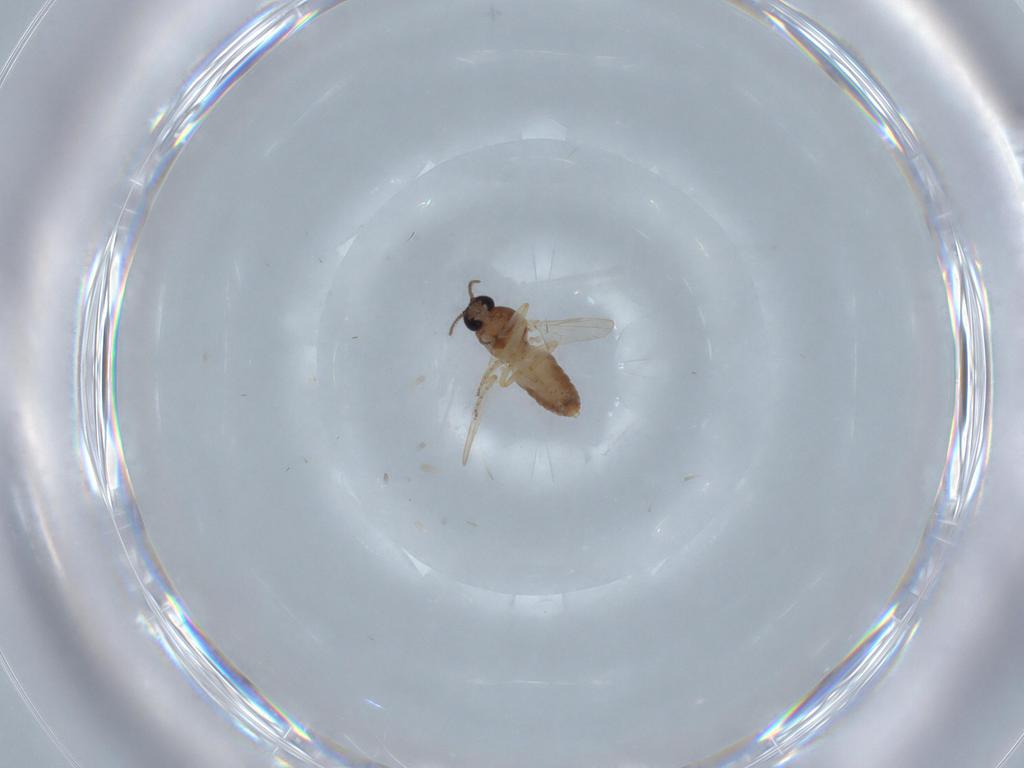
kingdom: Animalia
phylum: Arthropoda
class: Insecta
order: Diptera
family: Ceratopogonidae
